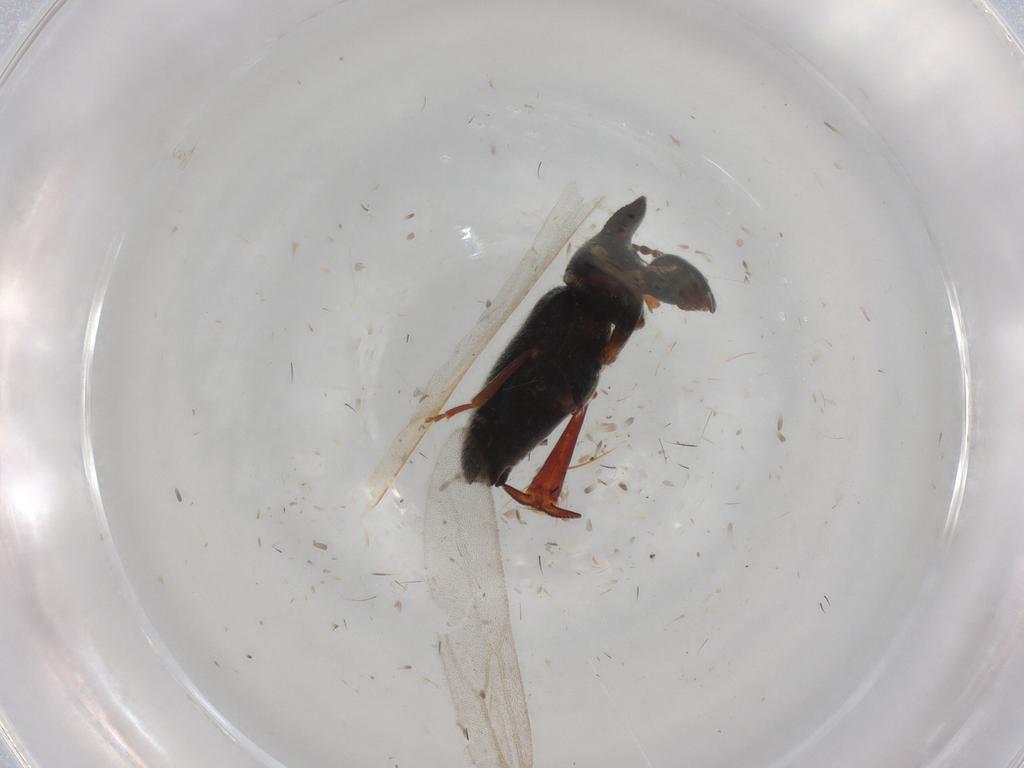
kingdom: Animalia
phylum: Arthropoda
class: Insecta
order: Coleoptera
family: Anthicidae
